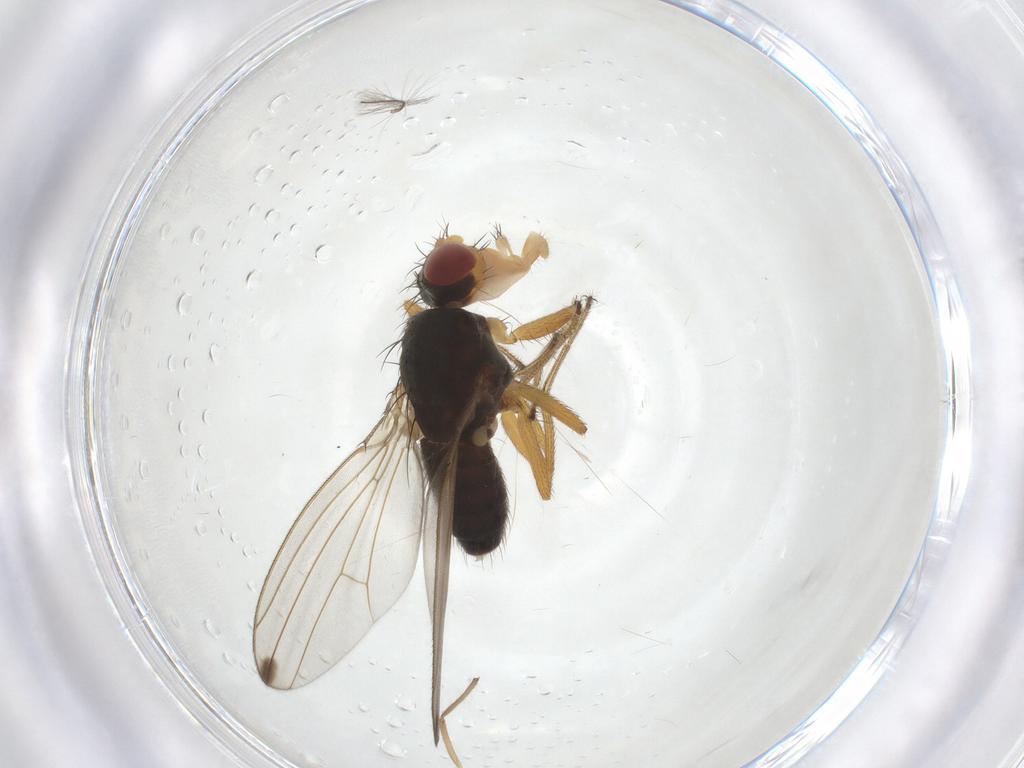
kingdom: Animalia
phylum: Arthropoda
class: Insecta
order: Diptera
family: Drosophilidae
